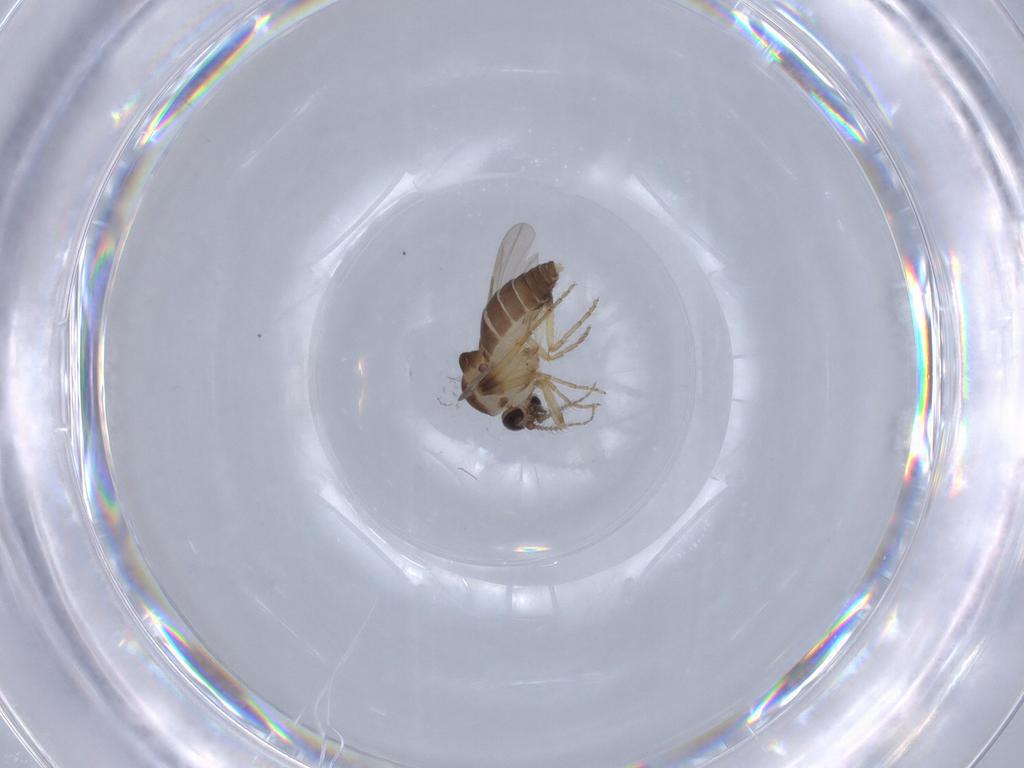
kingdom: Animalia
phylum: Arthropoda
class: Insecta
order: Diptera
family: Ceratopogonidae
